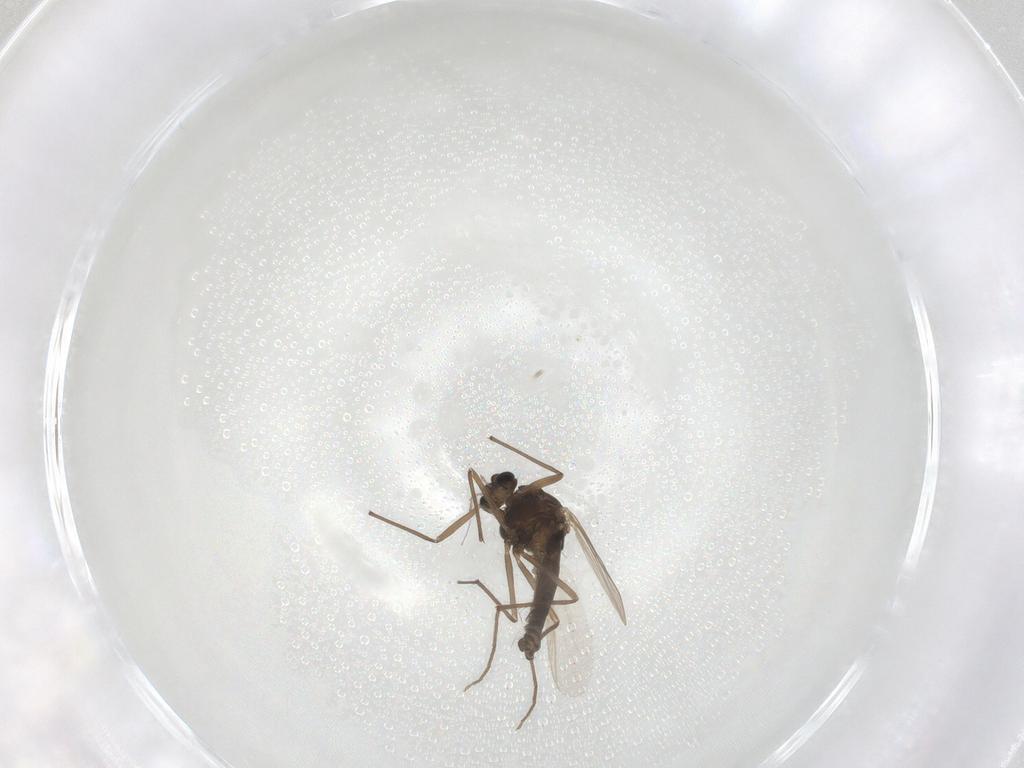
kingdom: Animalia
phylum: Arthropoda
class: Insecta
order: Diptera
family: Chironomidae
